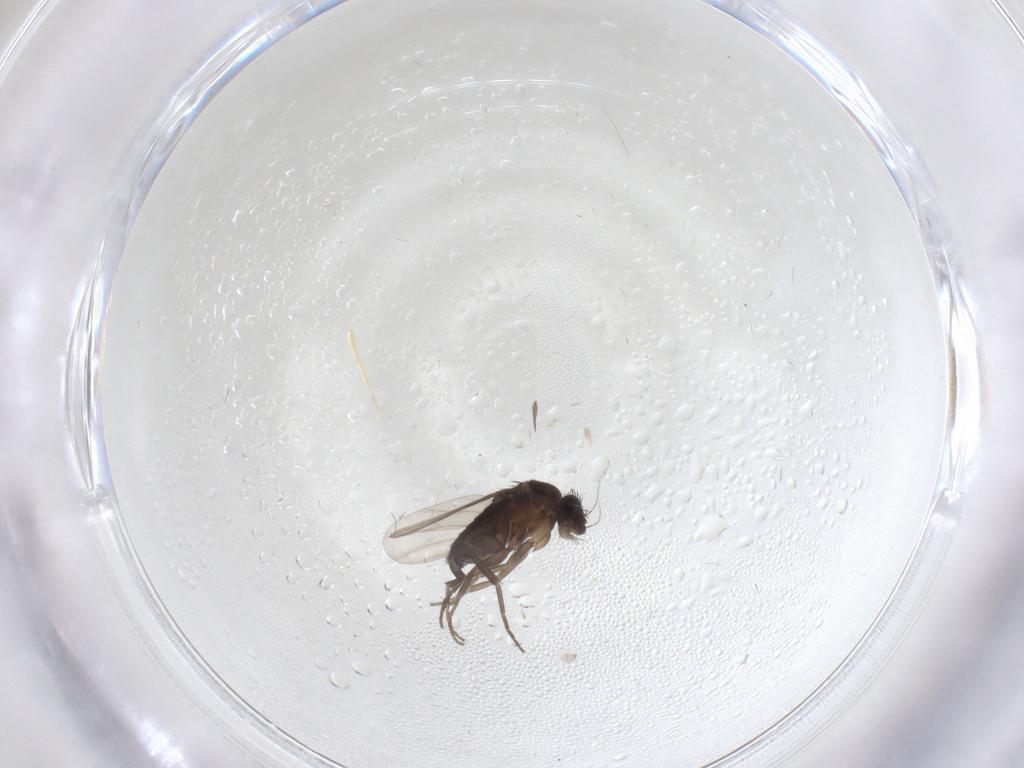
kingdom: Animalia
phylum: Arthropoda
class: Insecta
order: Diptera
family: Phoridae
